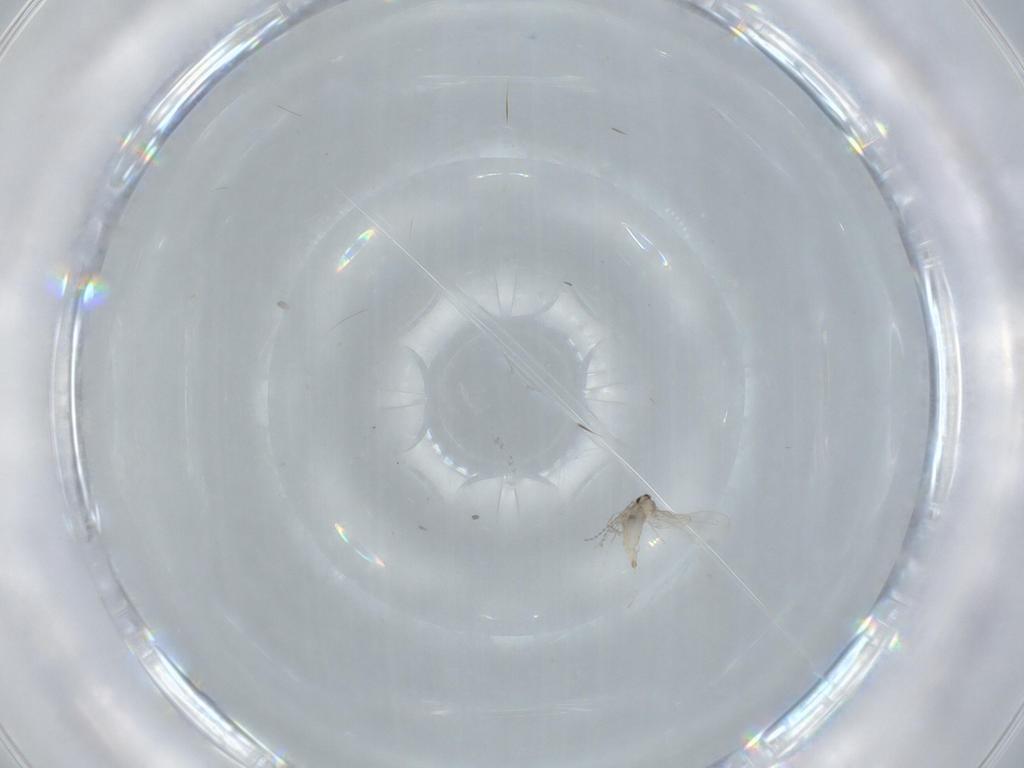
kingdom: Animalia
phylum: Arthropoda
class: Insecta
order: Diptera
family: Cecidomyiidae
